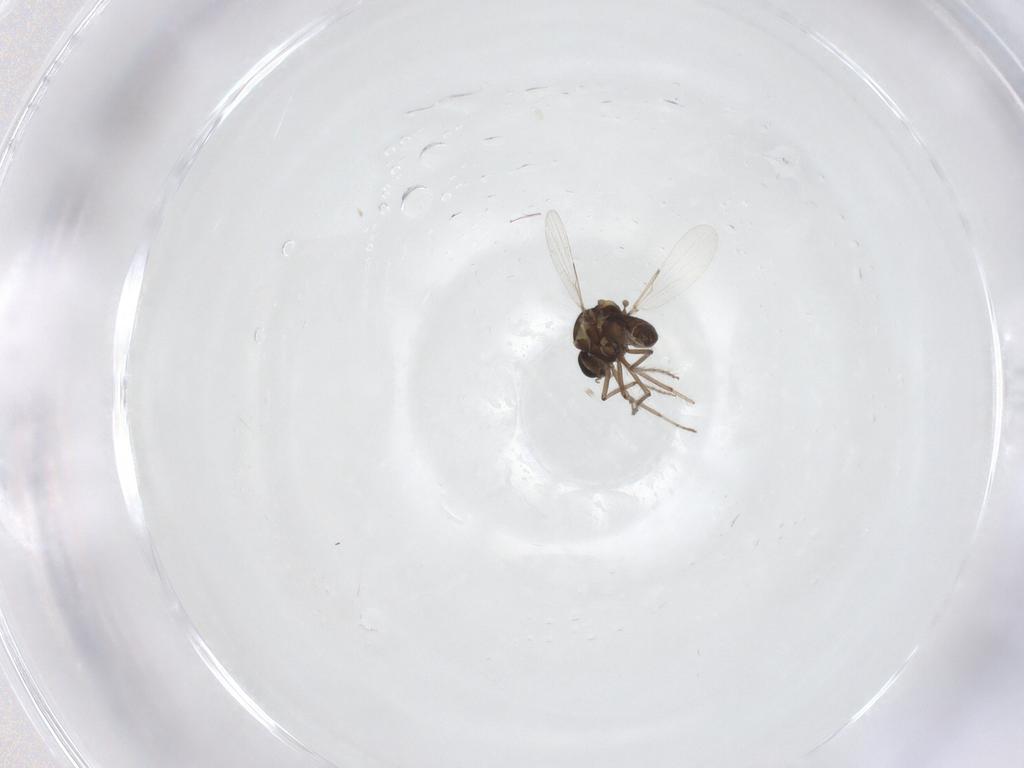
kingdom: Animalia
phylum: Arthropoda
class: Insecta
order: Diptera
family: Ceratopogonidae
